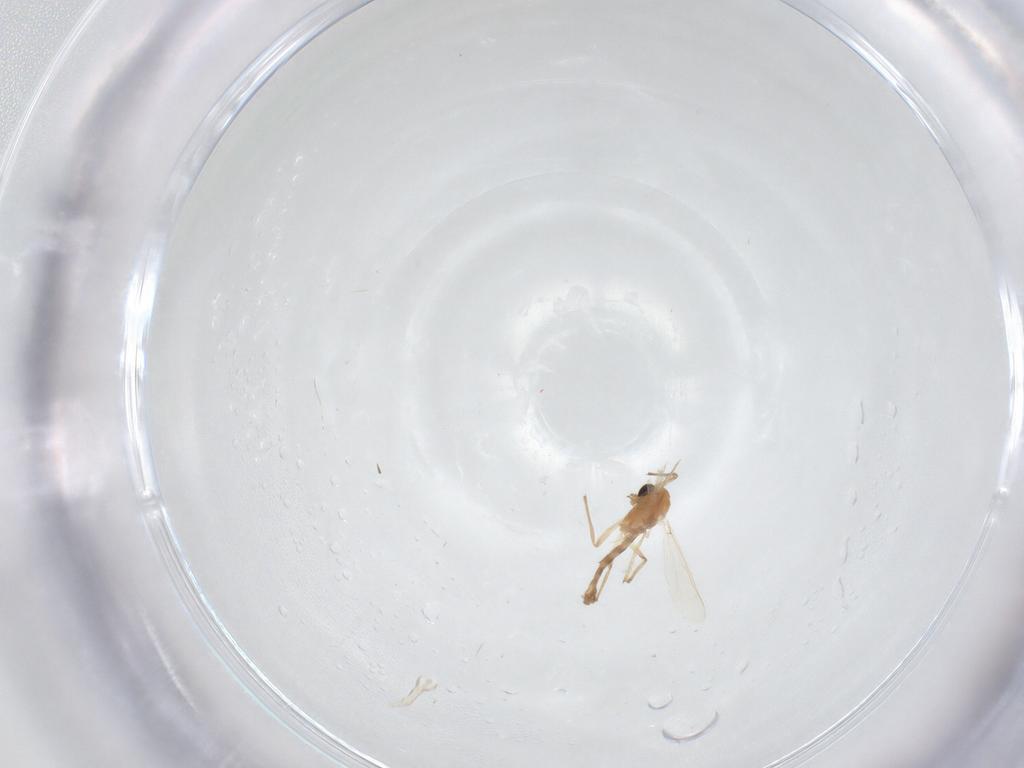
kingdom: Animalia
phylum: Arthropoda
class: Insecta
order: Diptera
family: Chironomidae
